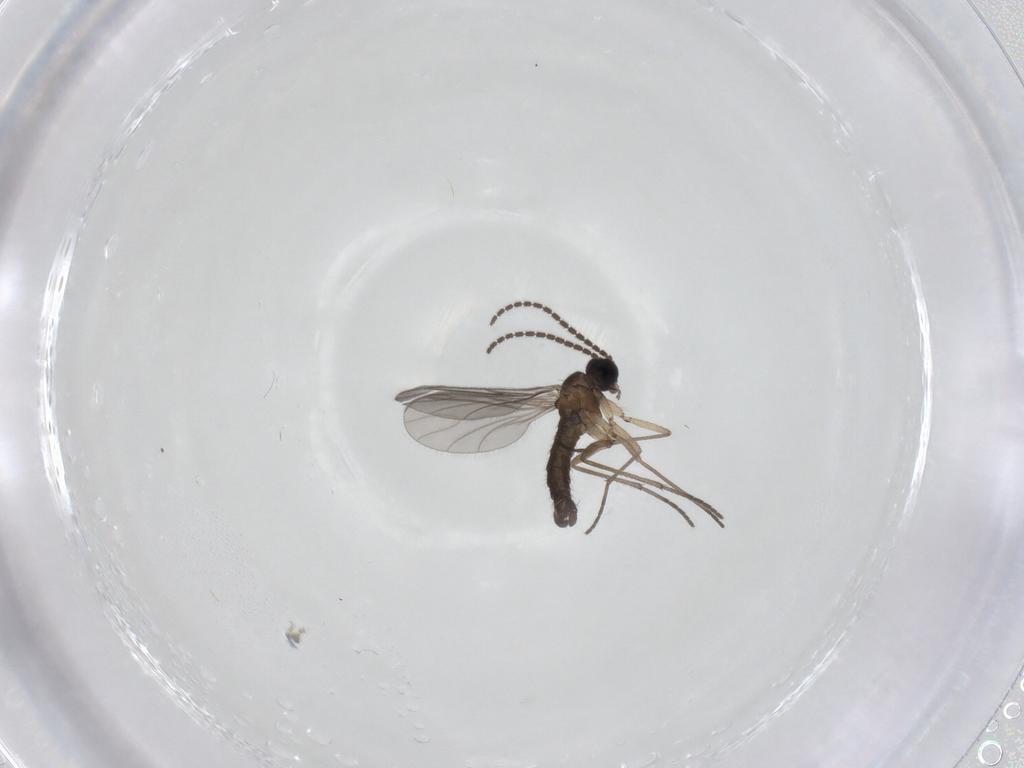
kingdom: Animalia
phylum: Arthropoda
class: Insecta
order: Diptera
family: Sciaridae
